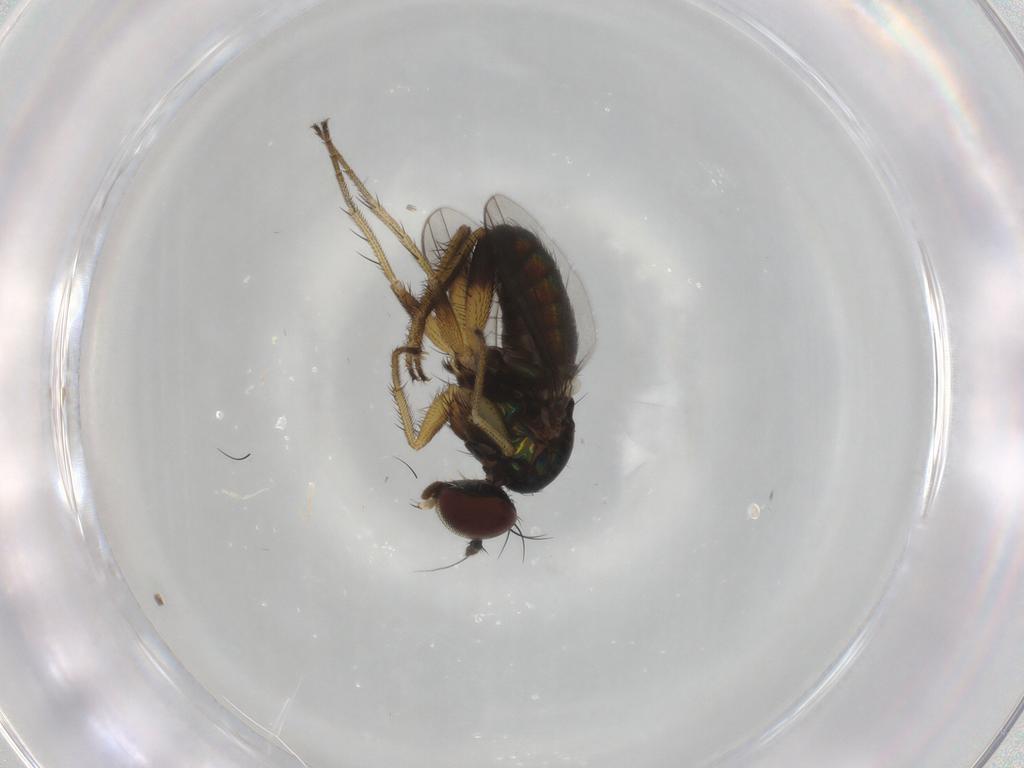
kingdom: Animalia
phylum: Arthropoda
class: Insecta
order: Diptera
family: Dolichopodidae
